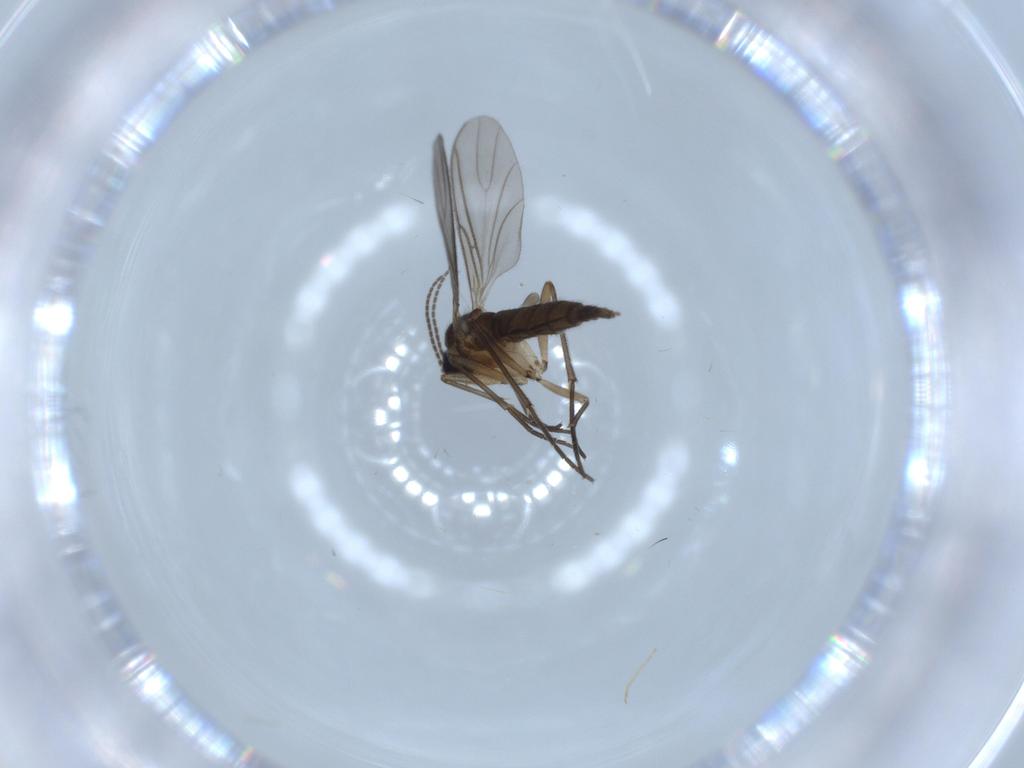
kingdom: Animalia
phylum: Arthropoda
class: Insecta
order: Diptera
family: Sciaridae
